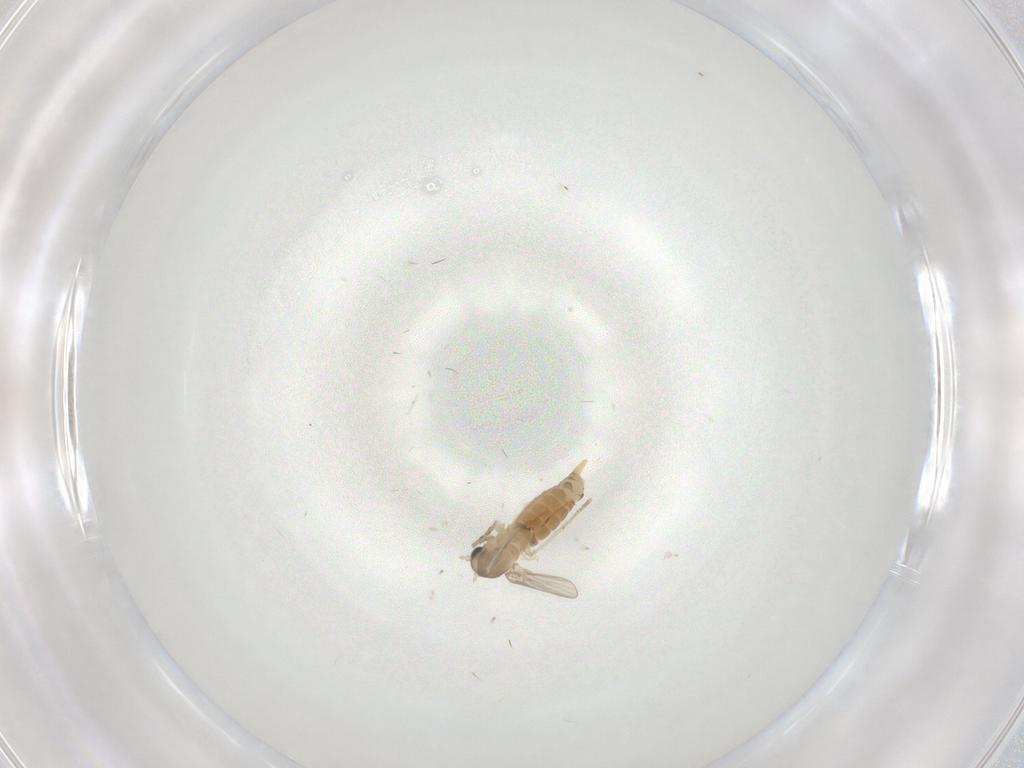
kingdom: Animalia
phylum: Arthropoda
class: Insecta
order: Diptera
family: Psychodidae
